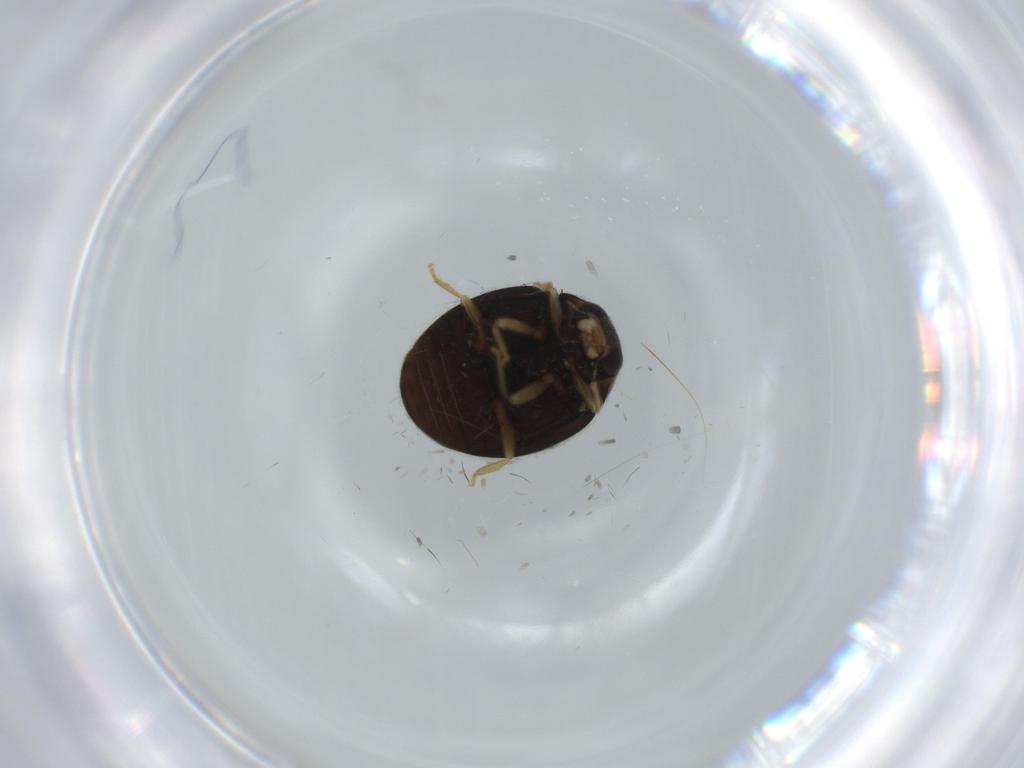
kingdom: Animalia
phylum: Arthropoda
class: Insecta
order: Coleoptera
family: Coccinellidae
